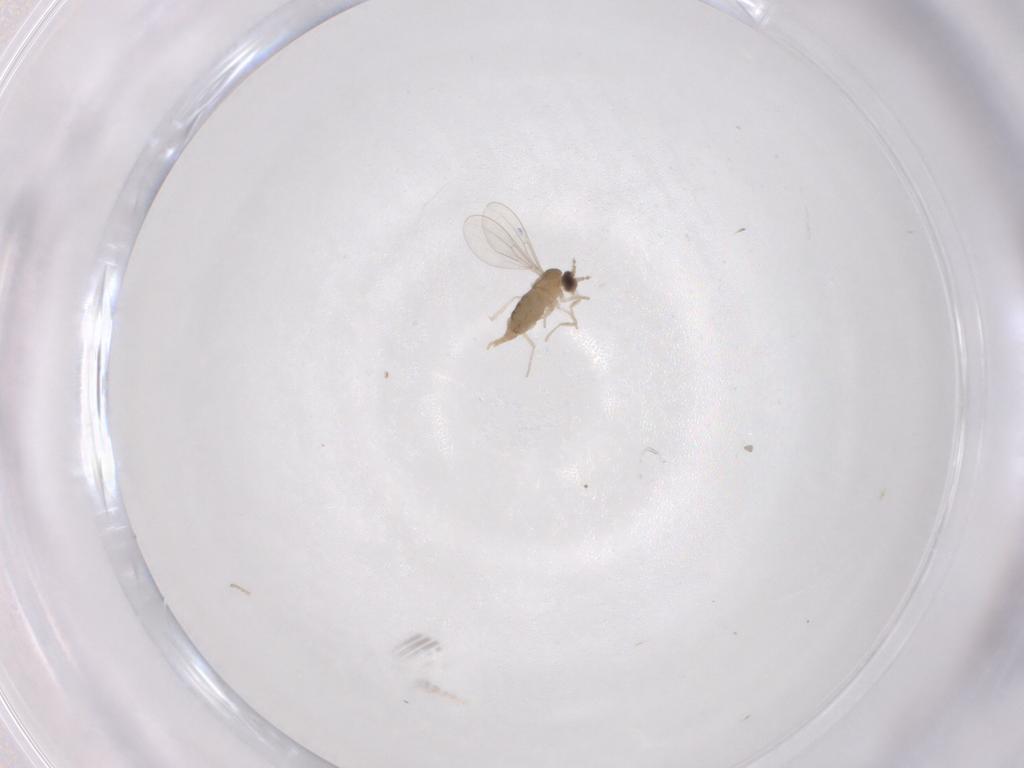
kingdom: Animalia
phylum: Arthropoda
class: Insecta
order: Diptera
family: Cecidomyiidae
